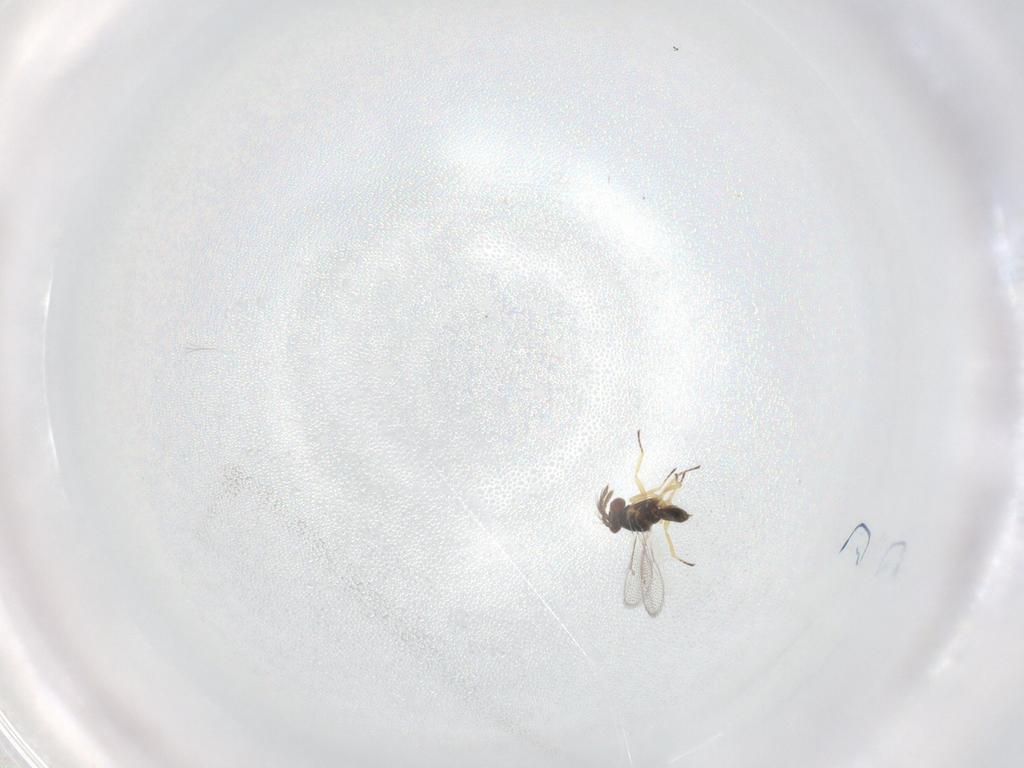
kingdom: Animalia
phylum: Arthropoda
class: Insecta
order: Hymenoptera
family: Eulophidae
